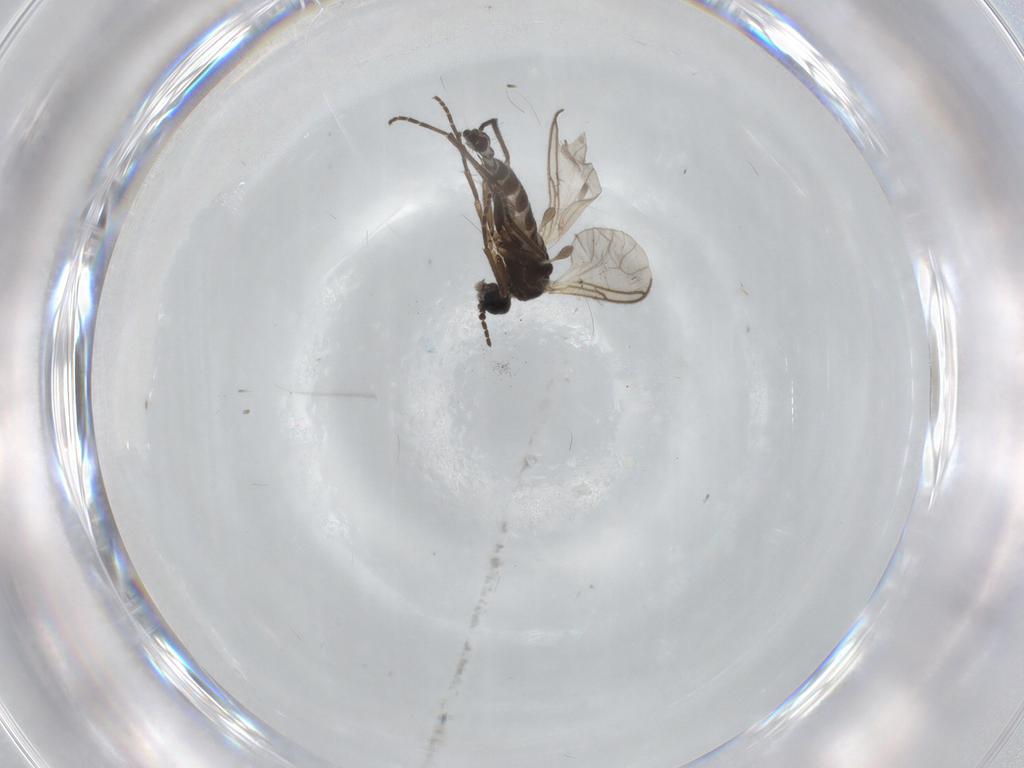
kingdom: Animalia
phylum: Arthropoda
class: Insecta
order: Diptera
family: Chironomidae
